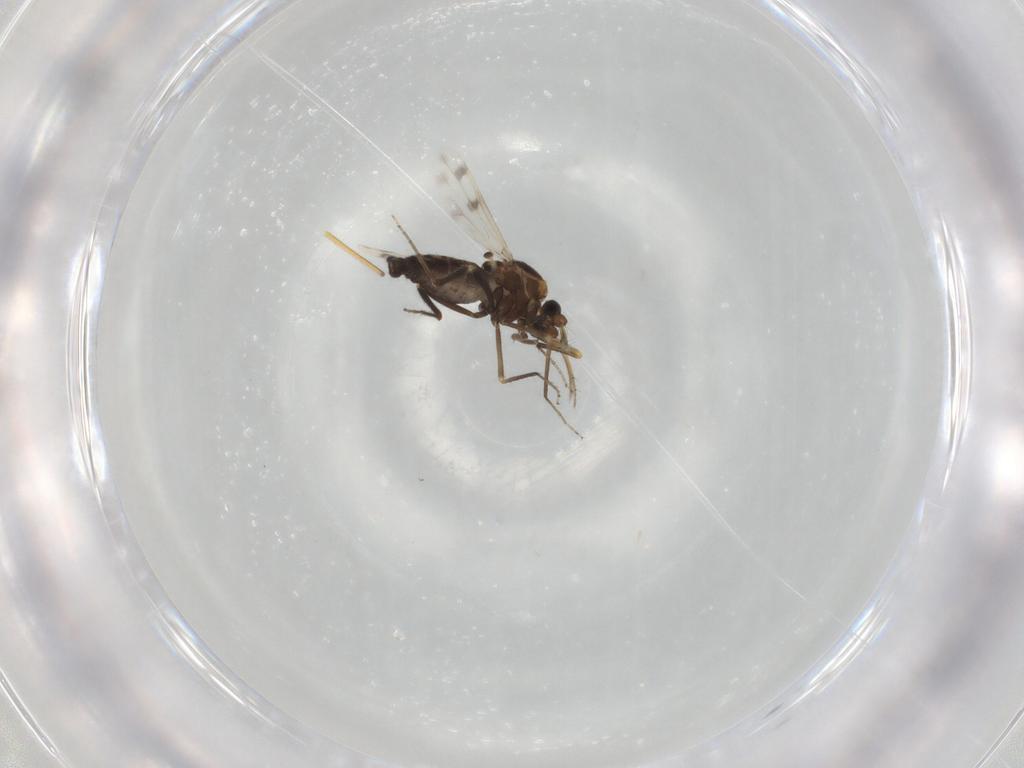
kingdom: Animalia
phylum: Arthropoda
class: Insecta
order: Diptera
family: Ceratopogonidae
